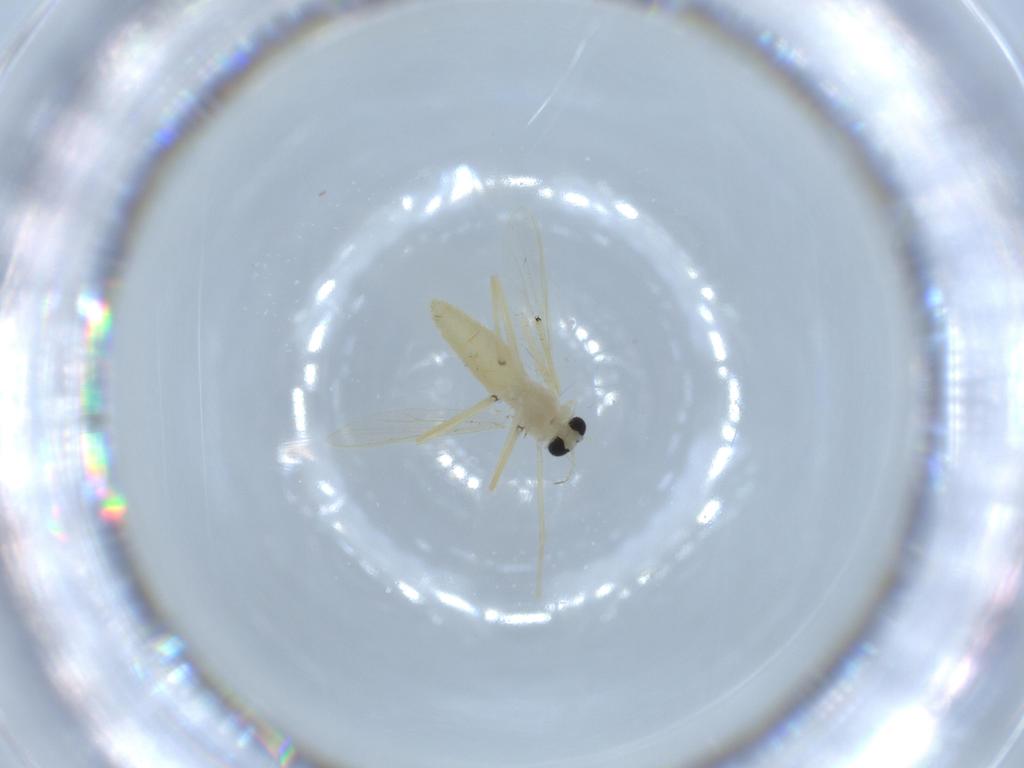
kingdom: Animalia
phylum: Arthropoda
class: Insecta
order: Diptera
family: Chironomidae
